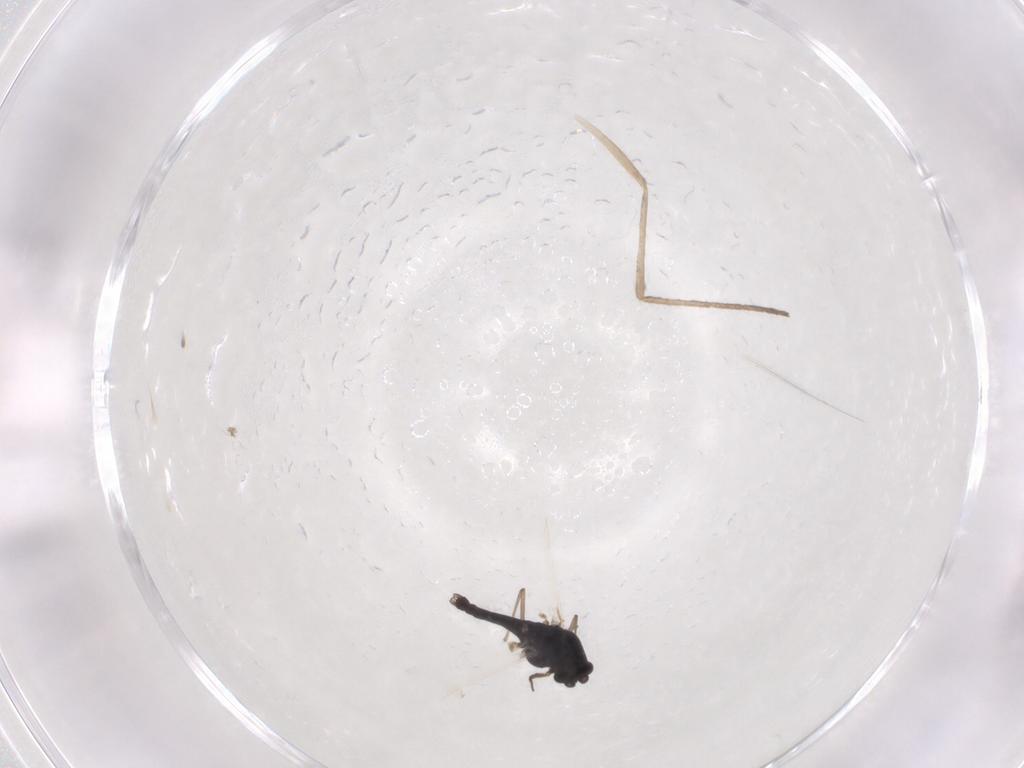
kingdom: Animalia
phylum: Arthropoda
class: Insecta
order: Diptera
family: Cecidomyiidae
